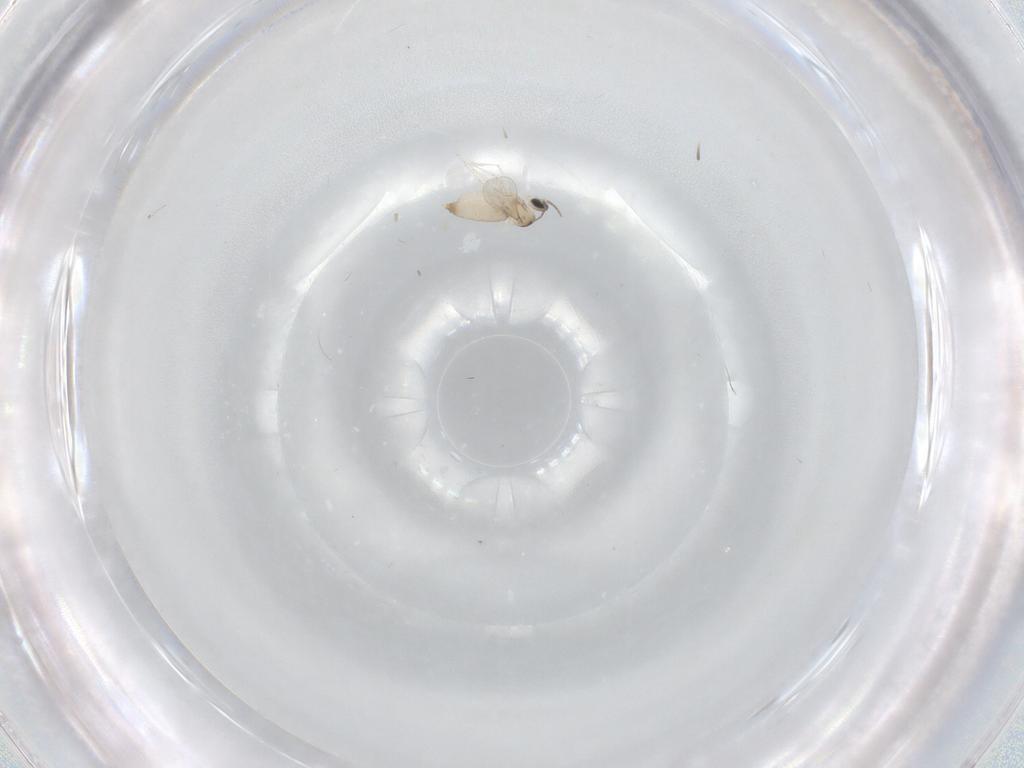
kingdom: Animalia
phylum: Arthropoda
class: Insecta
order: Diptera
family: Cecidomyiidae
